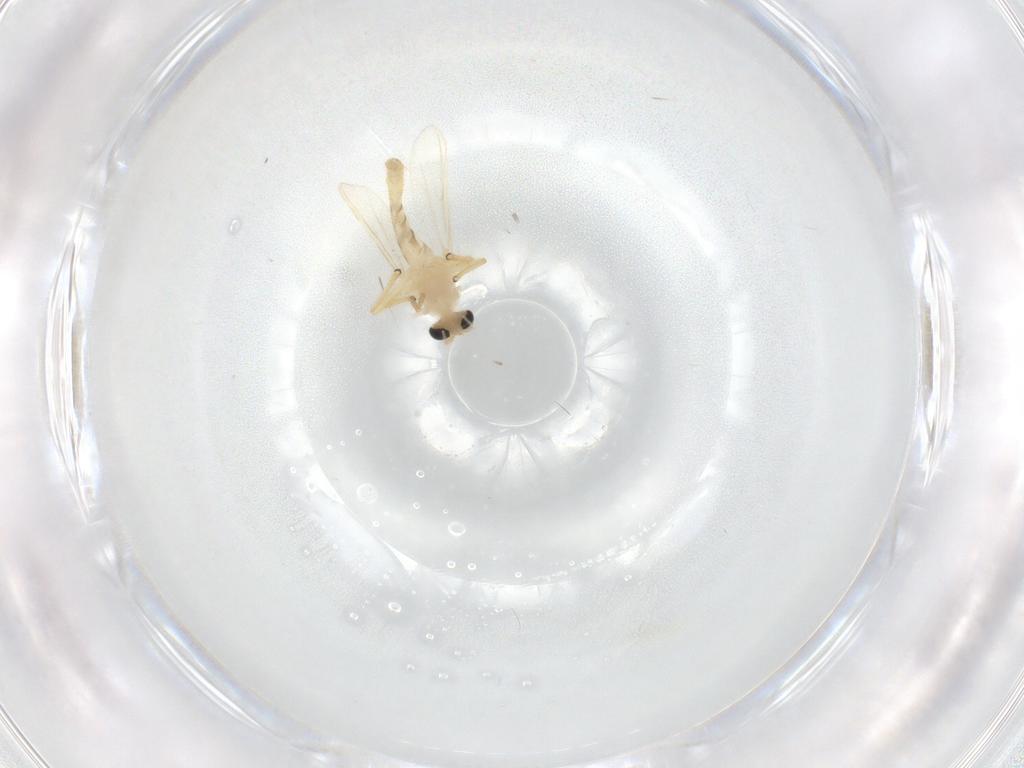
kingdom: Animalia
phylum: Arthropoda
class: Insecta
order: Diptera
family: Chironomidae
